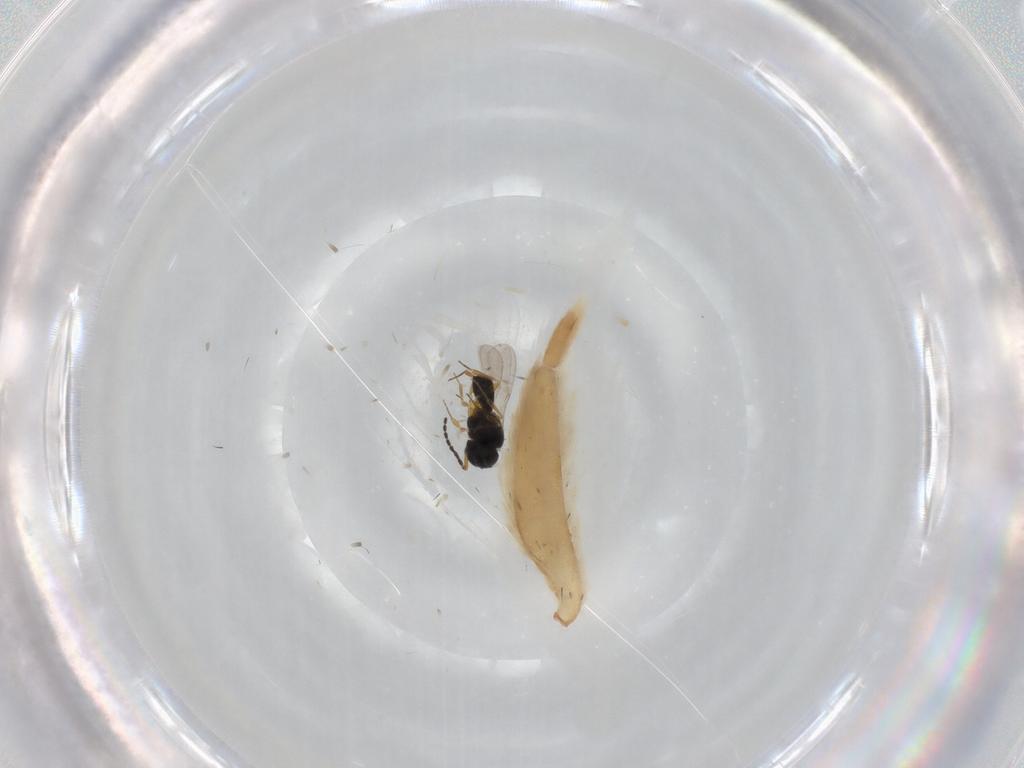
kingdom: Animalia
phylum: Arthropoda
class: Insecta
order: Hymenoptera
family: Scelionidae
